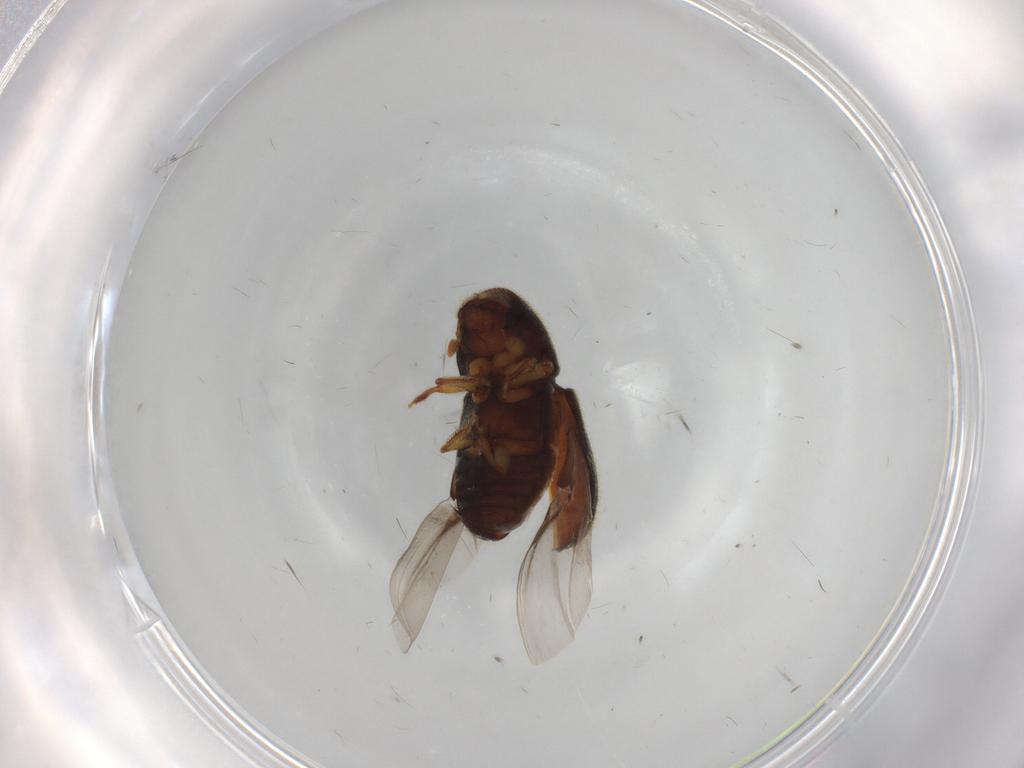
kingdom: Animalia
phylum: Arthropoda
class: Insecta
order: Coleoptera
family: Curculionidae
